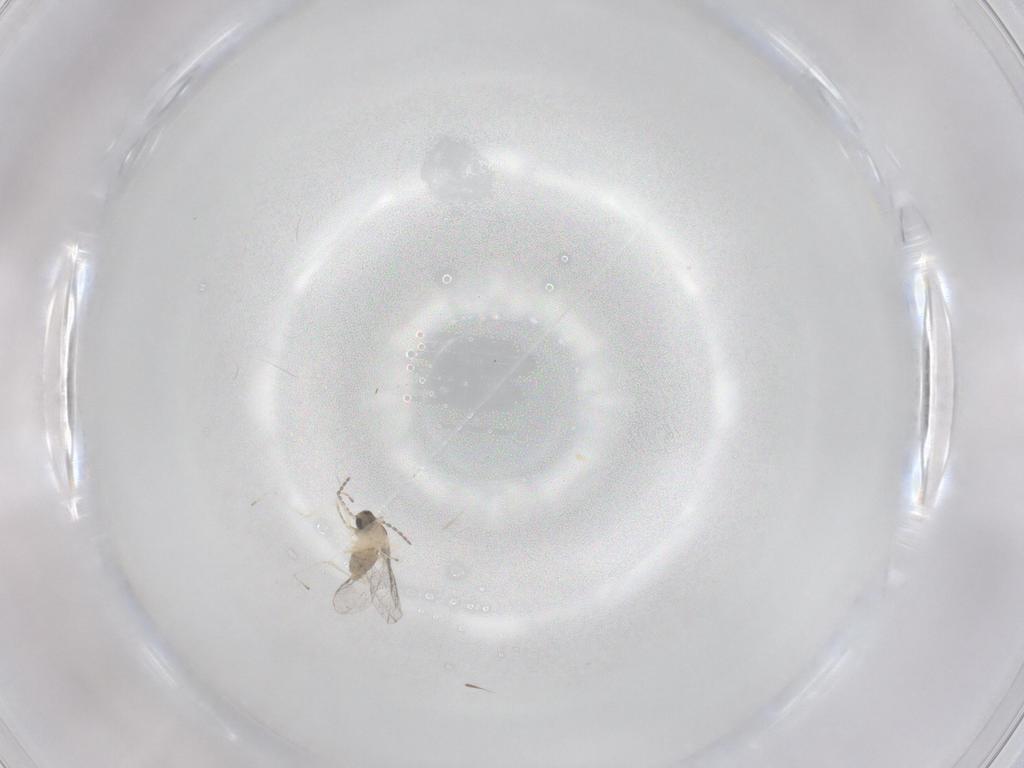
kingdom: Animalia
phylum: Arthropoda
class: Insecta
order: Diptera
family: Cecidomyiidae
